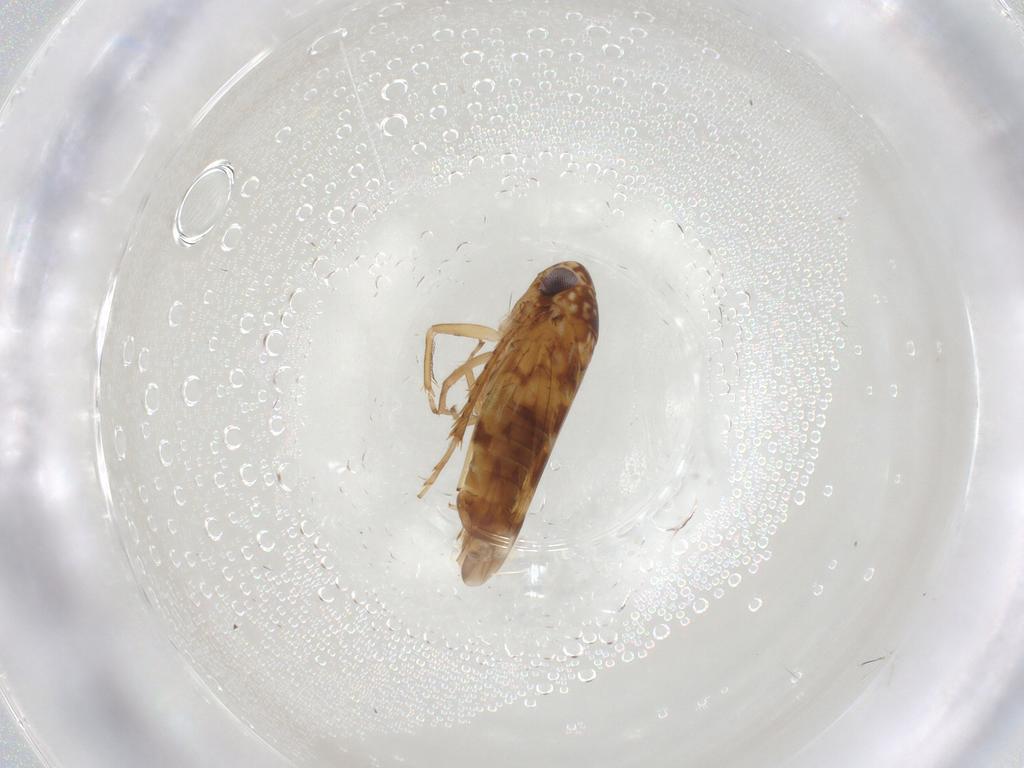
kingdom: Animalia
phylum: Arthropoda
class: Insecta
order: Hemiptera
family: Cicadellidae
